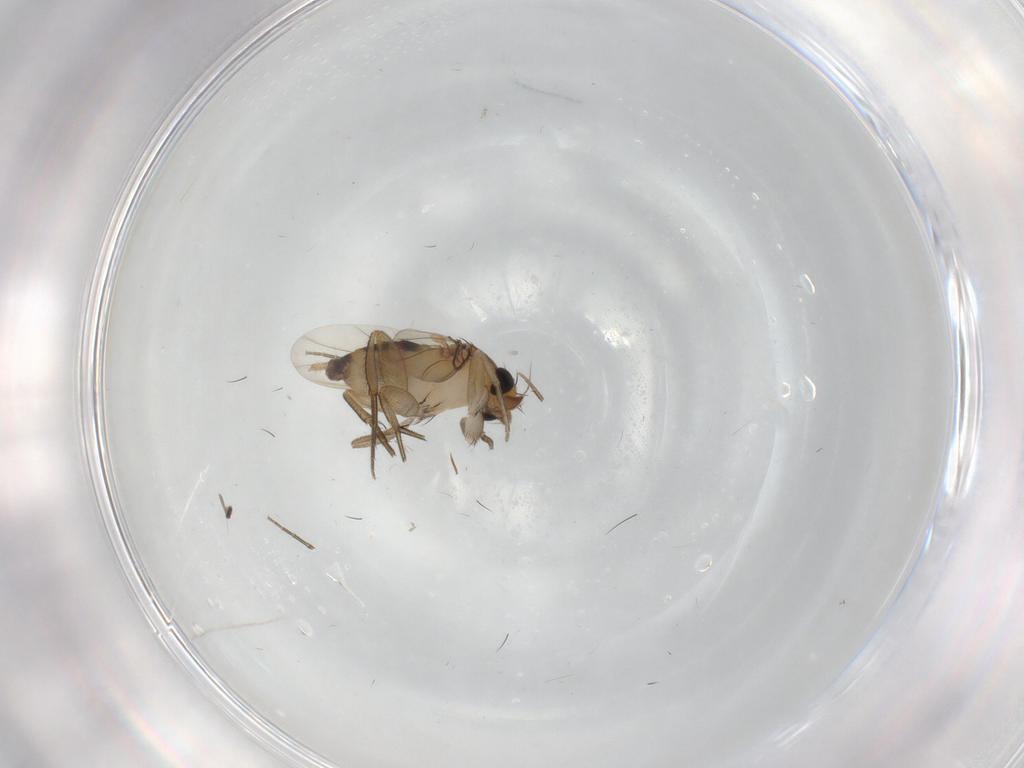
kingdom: Animalia
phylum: Arthropoda
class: Insecta
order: Diptera
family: Phoridae
